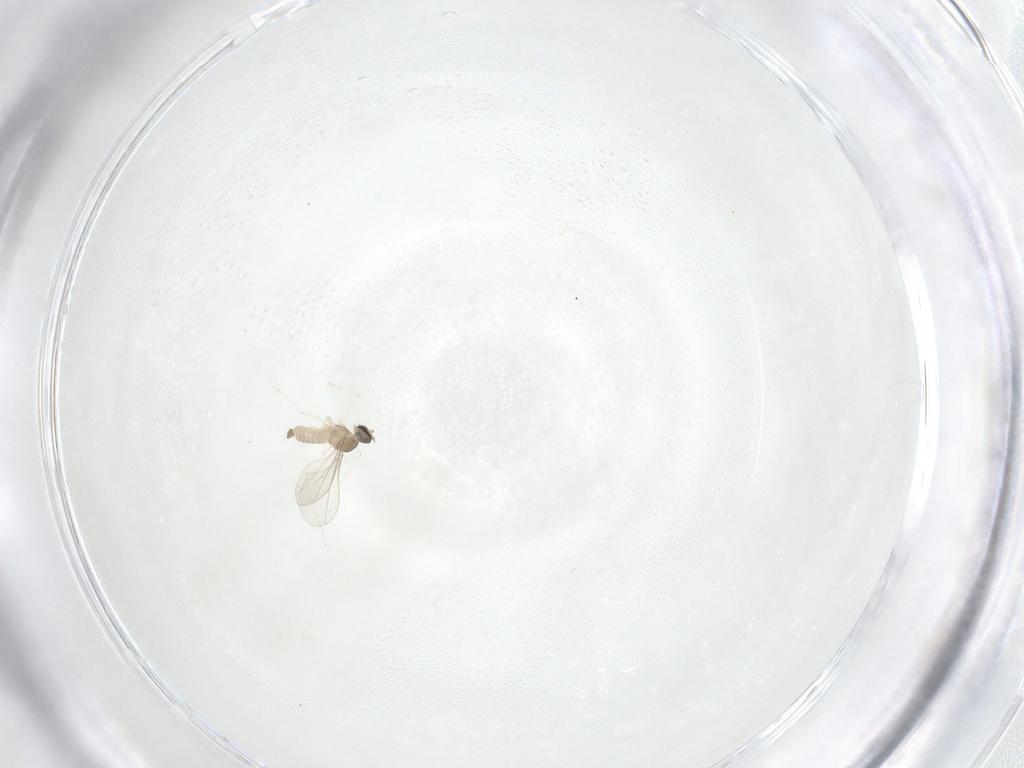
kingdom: Animalia
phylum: Arthropoda
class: Insecta
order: Diptera
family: Cecidomyiidae
